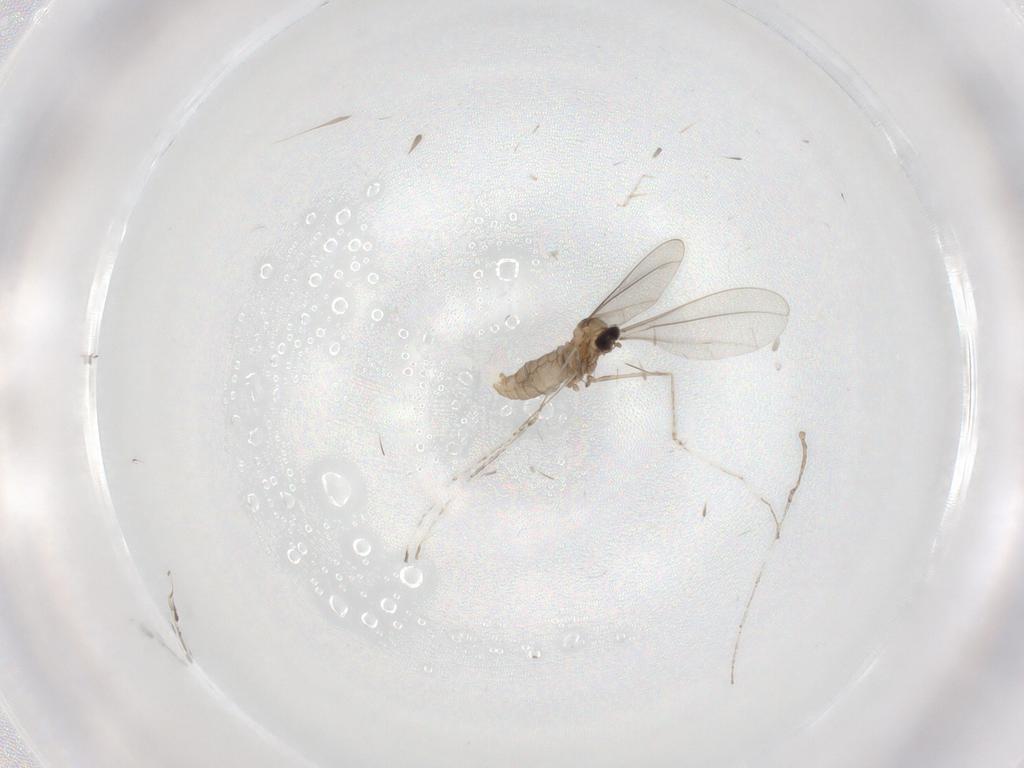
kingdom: Animalia
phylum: Arthropoda
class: Insecta
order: Diptera
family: Cecidomyiidae
